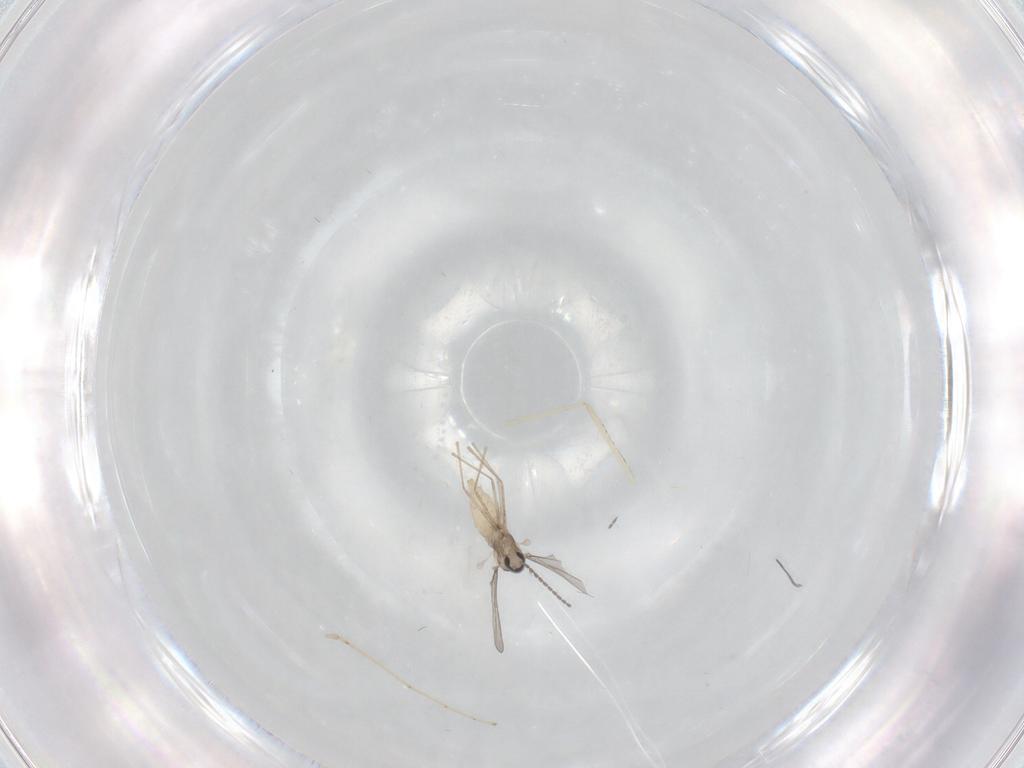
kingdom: Animalia
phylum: Arthropoda
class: Insecta
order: Diptera
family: Cecidomyiidae
